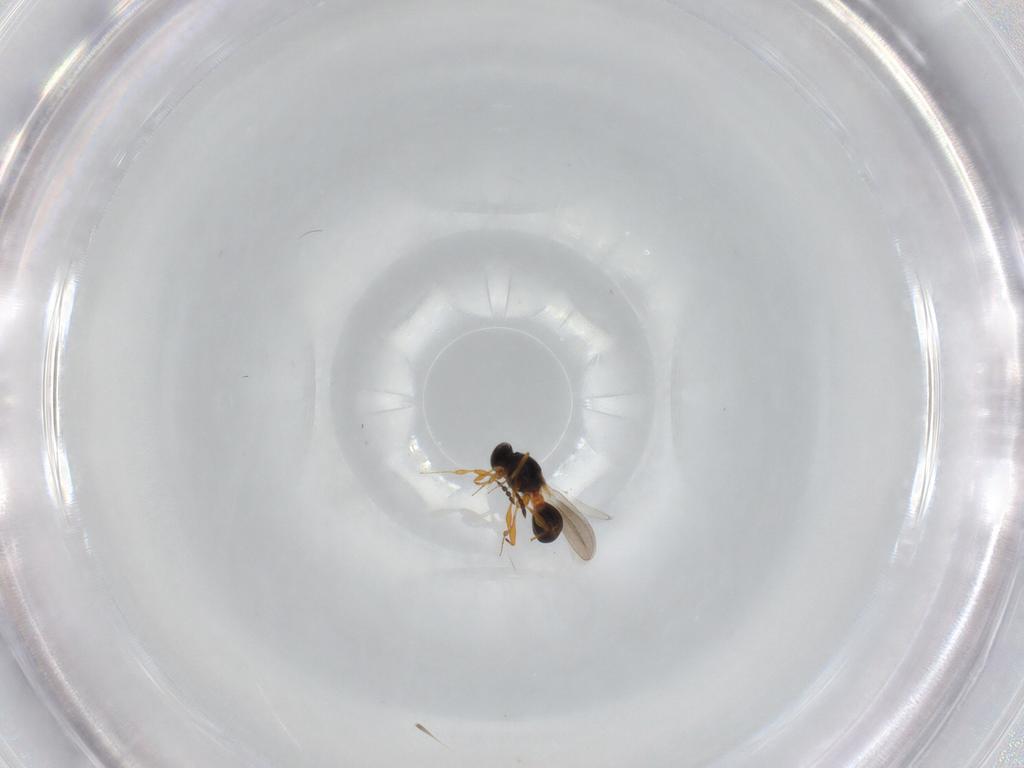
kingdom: Animalia
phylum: Arthropoda
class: Insecta
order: Hymenoptera
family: Platygastridae
